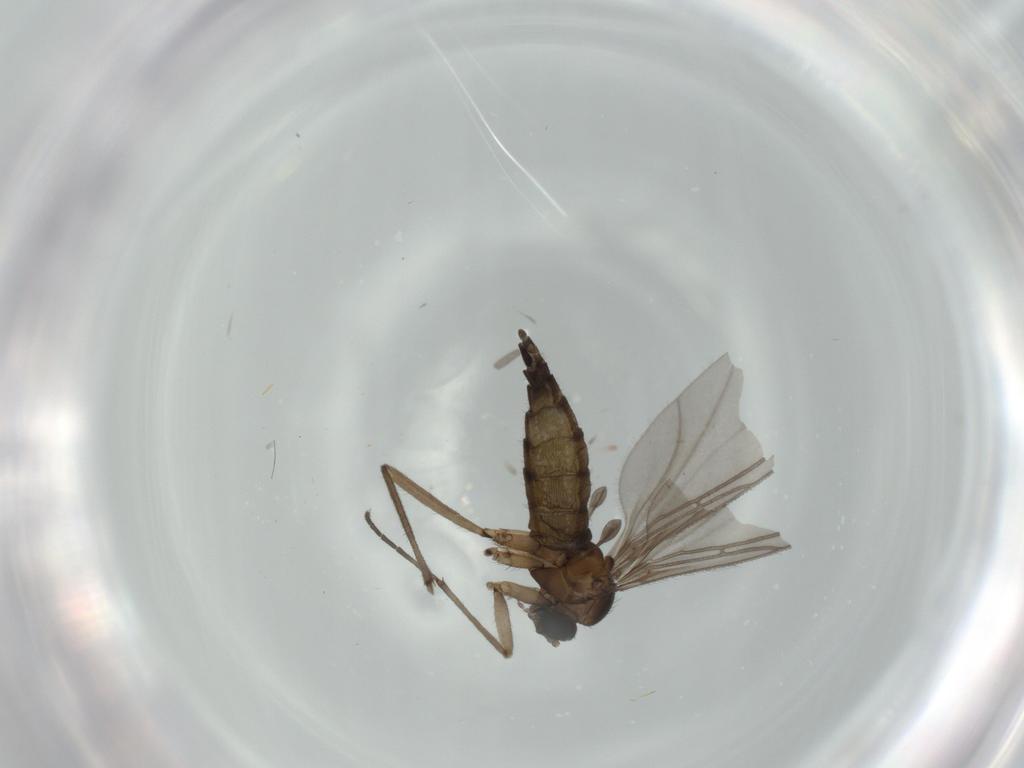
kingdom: Animalia
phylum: Arthropoda
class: Insecta
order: Diptera
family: Sciaridae
